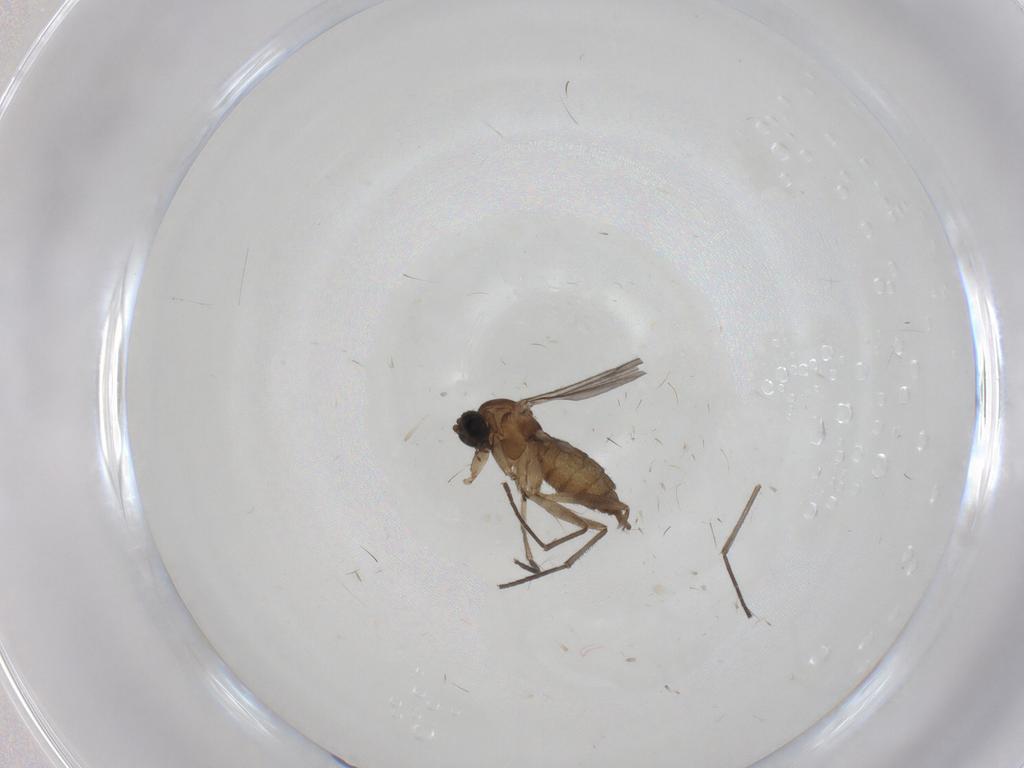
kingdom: Animalia
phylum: Arthropoda
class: Insecta
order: Diptera
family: Sciaridae
